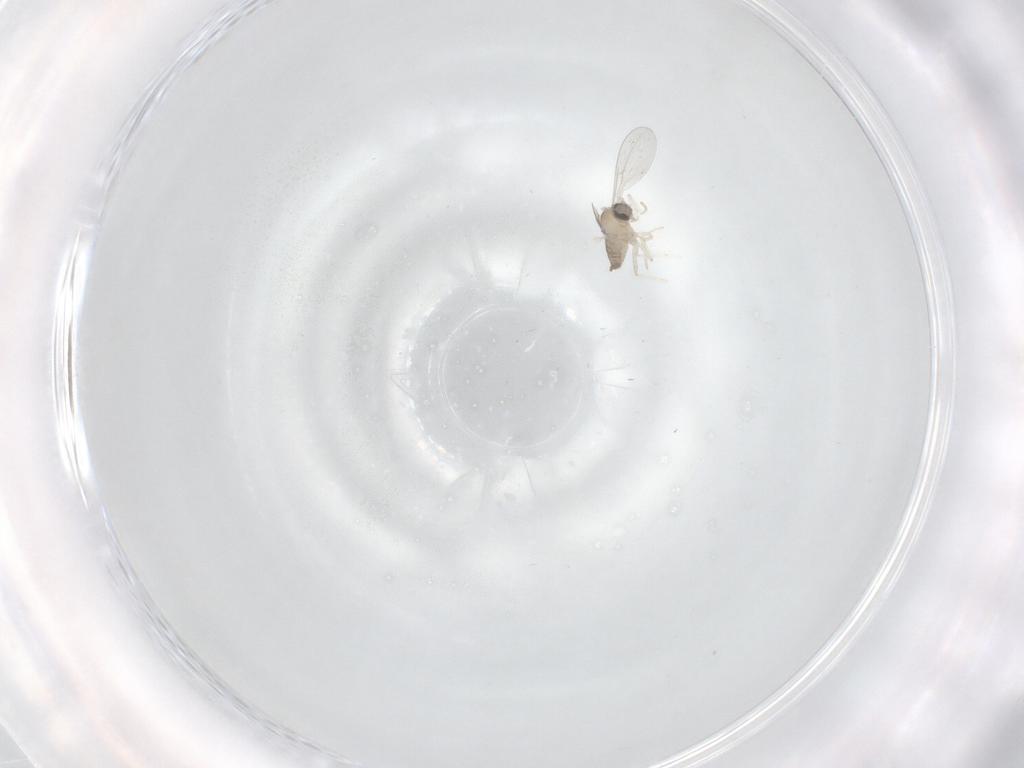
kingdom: Animalia
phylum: Arthropoda
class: Insecta
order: Diptera
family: Cecidomyiidae
